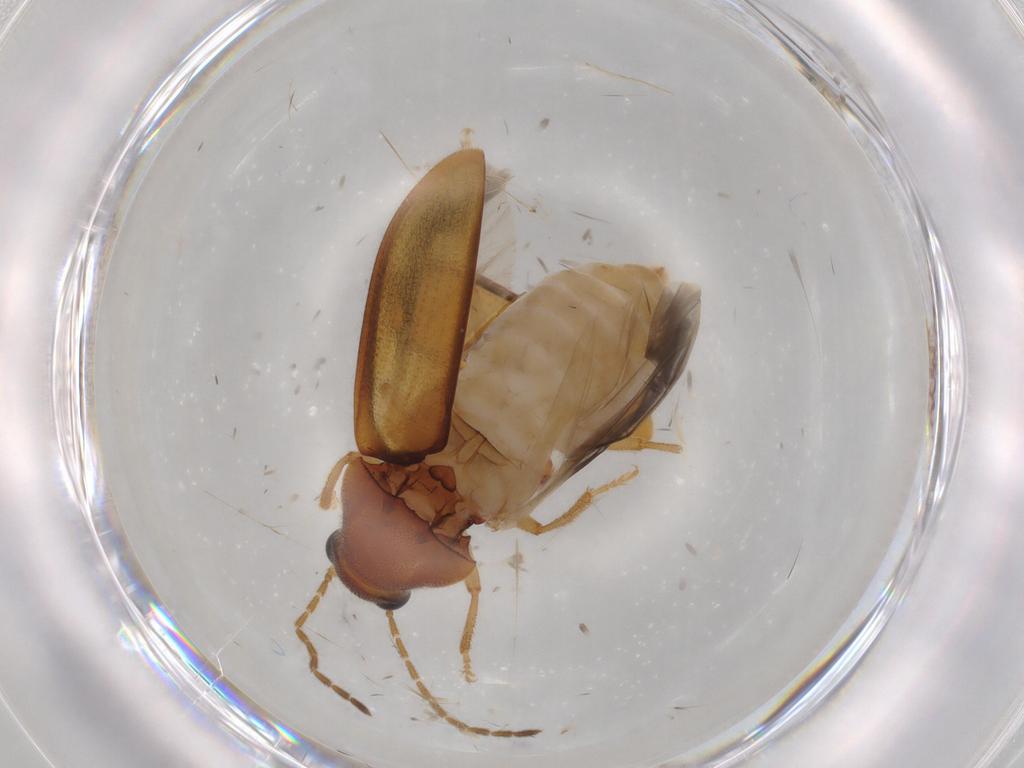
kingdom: Animalia
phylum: Arthropoda
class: Insecta
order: Coleoptera
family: Ptilodactylidae
